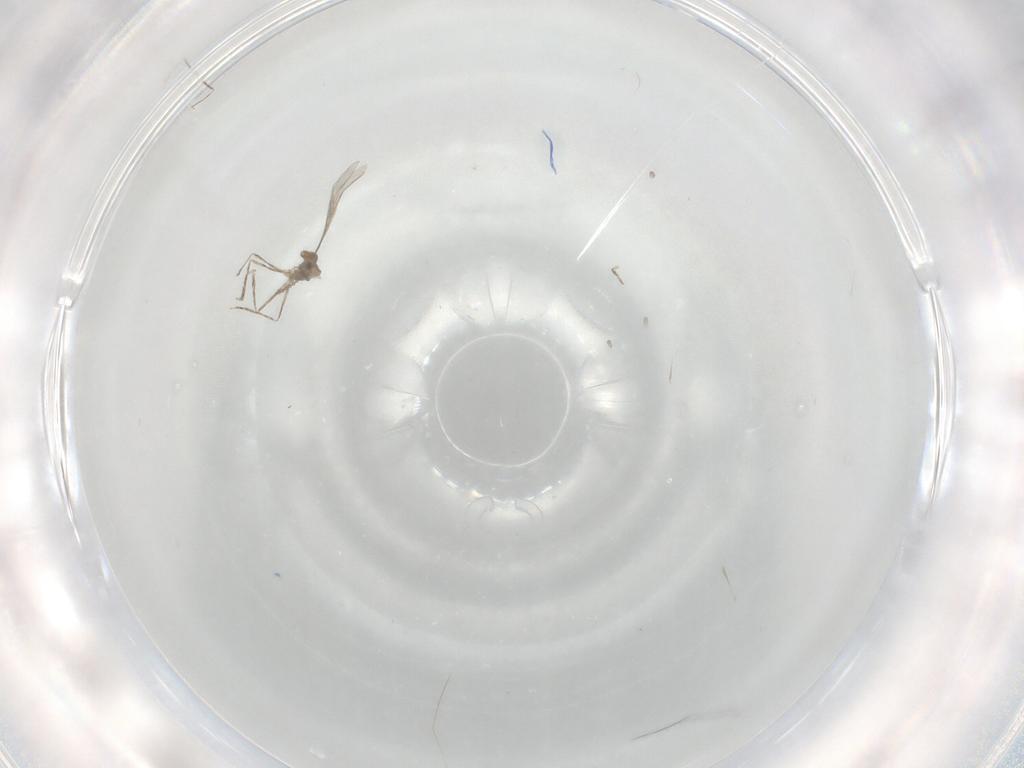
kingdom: Animalia
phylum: Arthropoda
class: Insecta
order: Diptera
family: Cecidomyiidae
